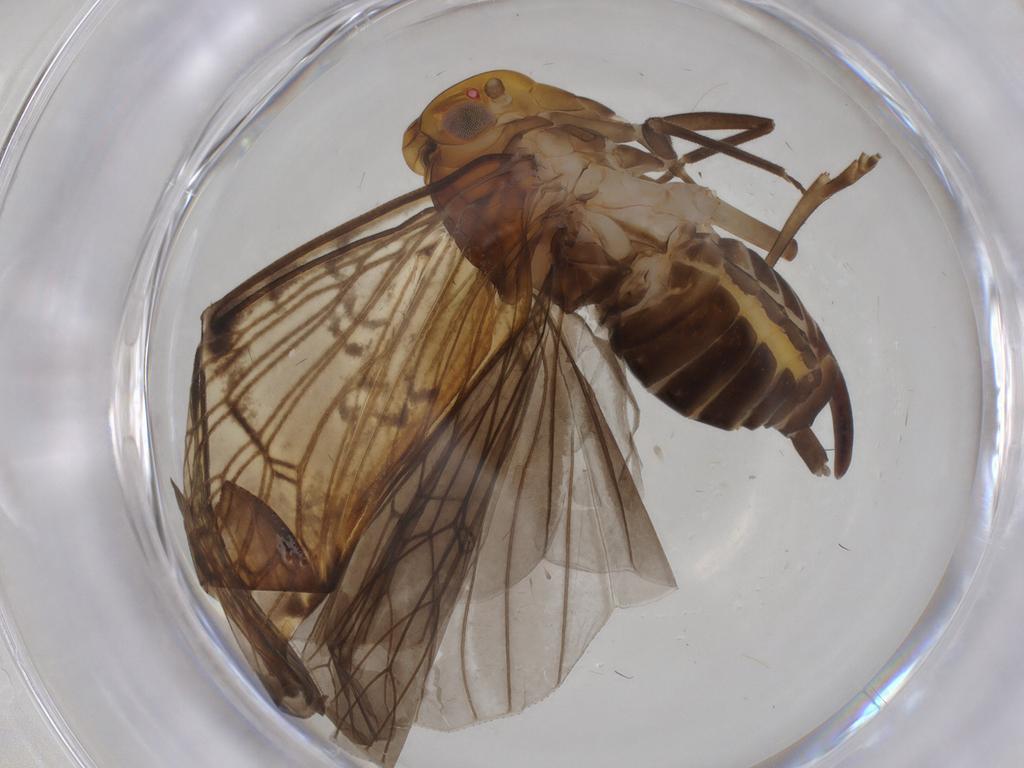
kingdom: Animalia
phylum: Arthropoda
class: Insecta
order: Hemiptera
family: Cixiidae
